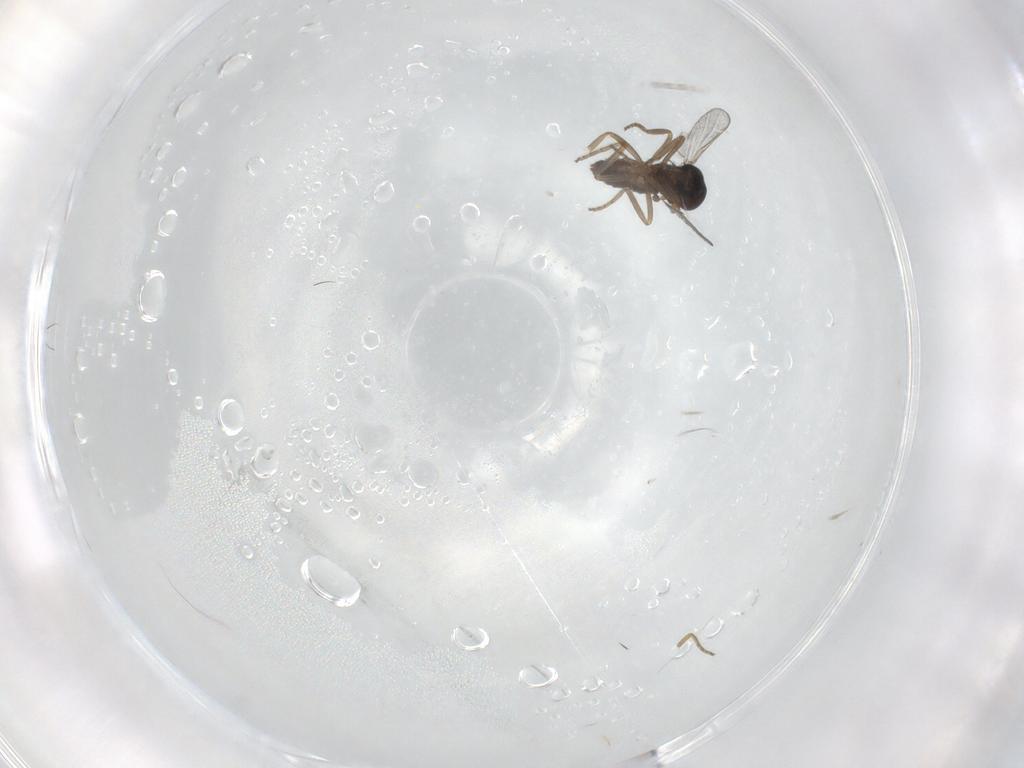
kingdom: Animalia
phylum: Arthropoda
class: Insecta
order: Diptera
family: Ceratopogonidae
